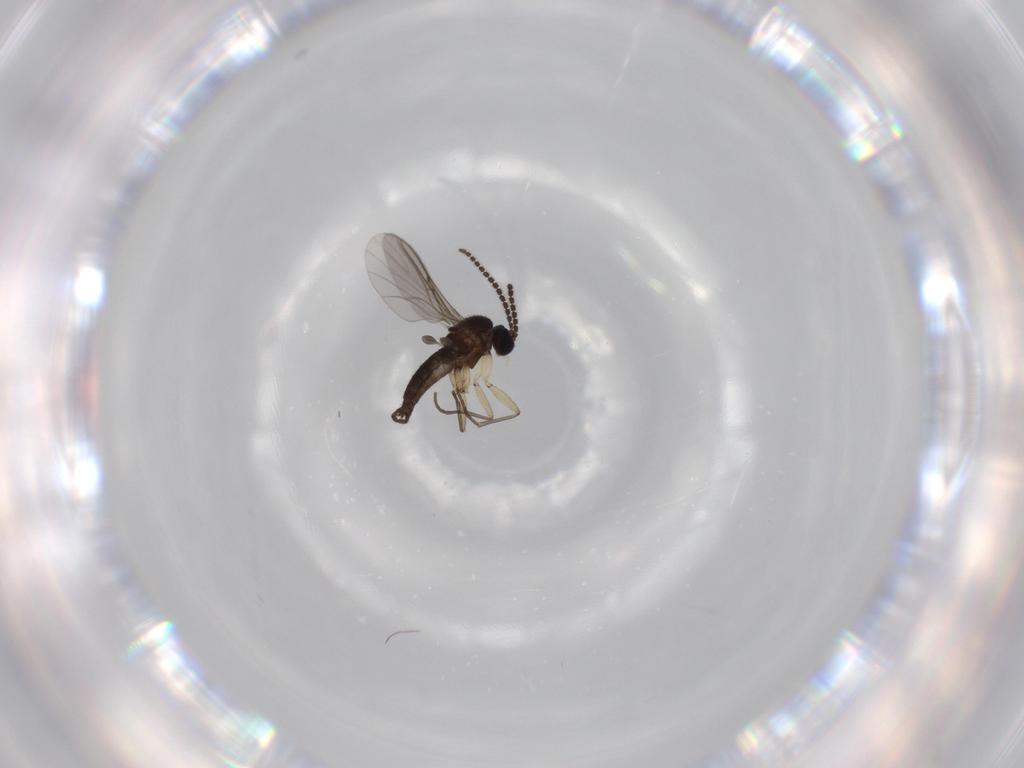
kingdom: Animalia
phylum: Arthropoda
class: Insecta
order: Diptera
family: Sciaridae
